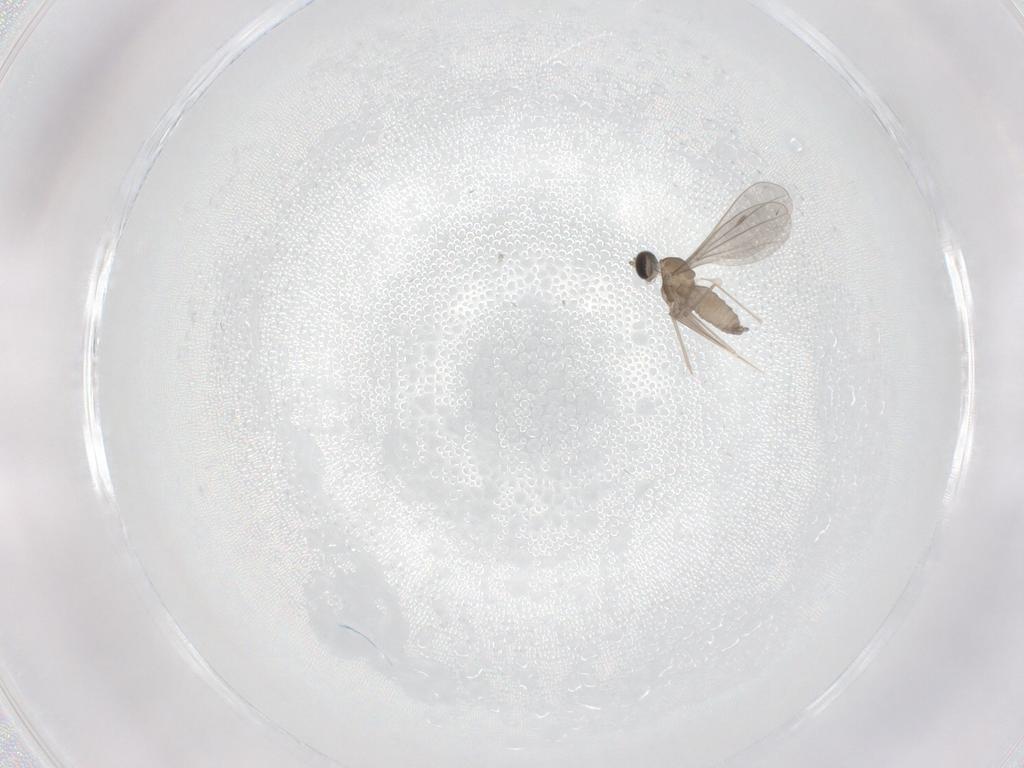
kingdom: Animalia
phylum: Arthropoda
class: Insecta
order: Diptera
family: Cecidomyiidae
